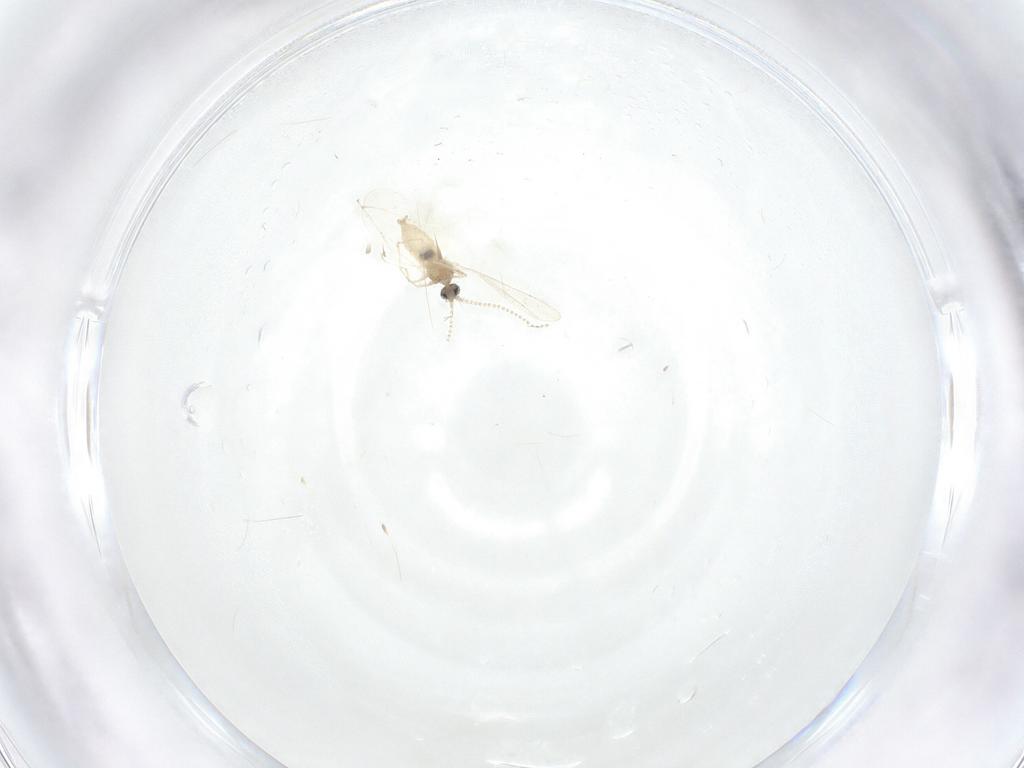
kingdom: Animalia
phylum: Arthropoda
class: Insecta
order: Diptera
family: Cecidomyiidae
